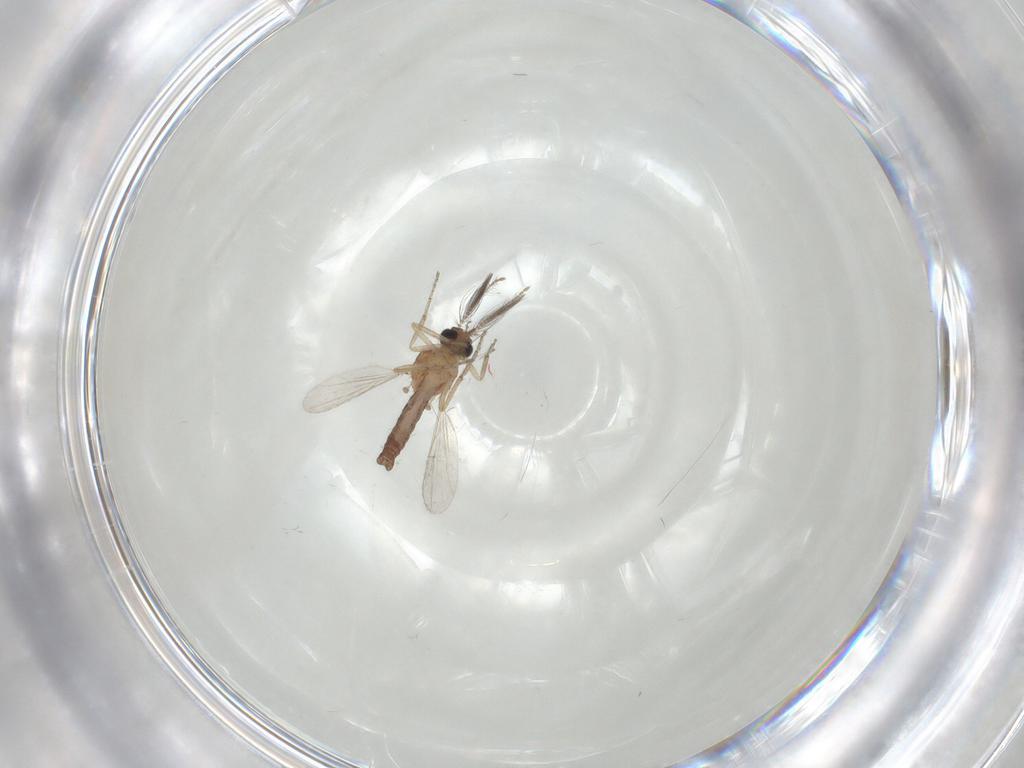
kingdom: Animalia
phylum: Arthropoda
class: Insecta
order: Diptera
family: Ceratopogonidae
